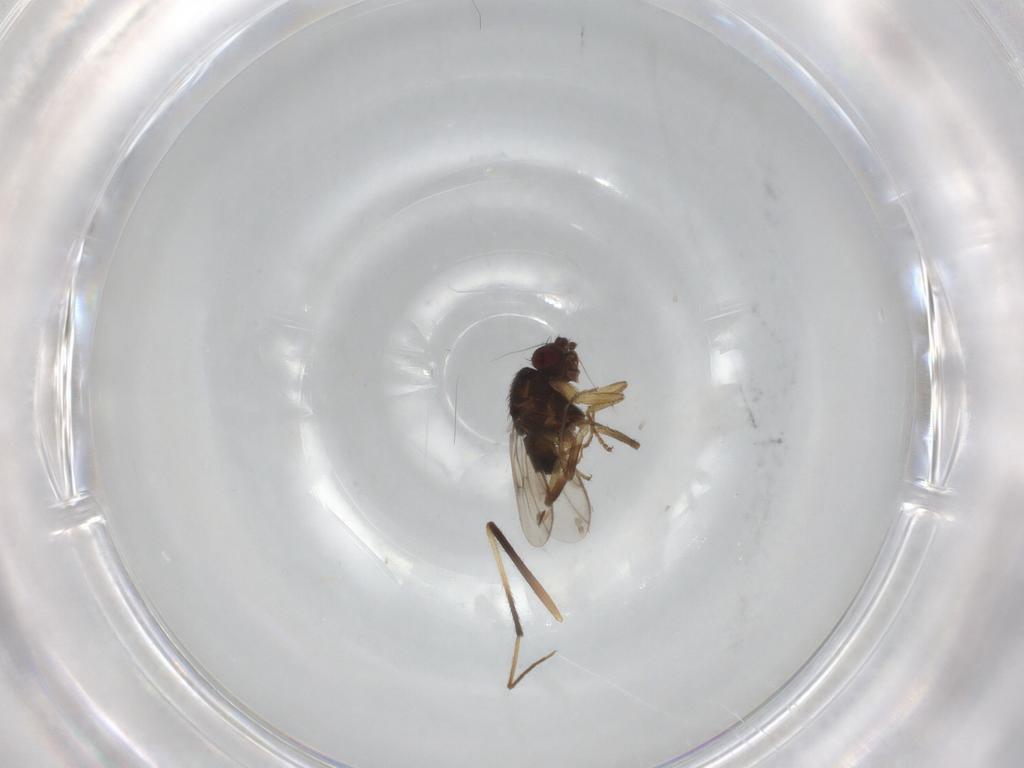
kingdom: Animalia
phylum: Arthropoda
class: Insecta
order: Diptera
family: Sphaeroceridae
